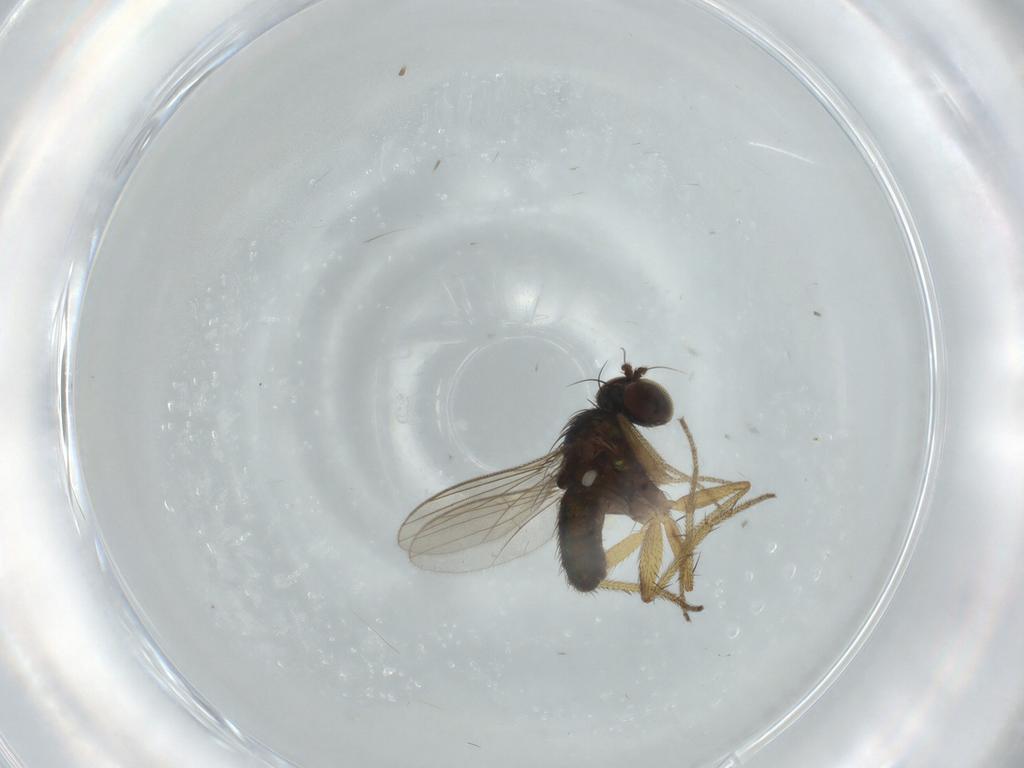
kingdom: Animalia
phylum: Arthropoda
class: Insecta
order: Diptera
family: Dolichopodidae
